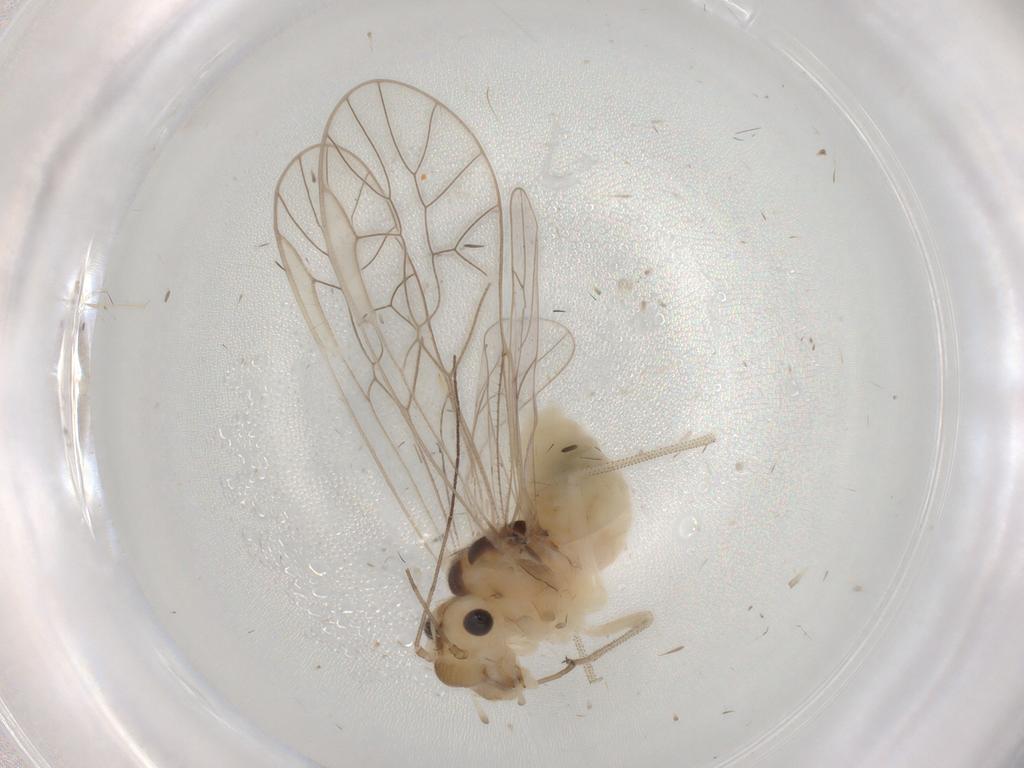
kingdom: Animalia
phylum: Arthropoda
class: Insecta
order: Psocodea
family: Stenopsocidae
